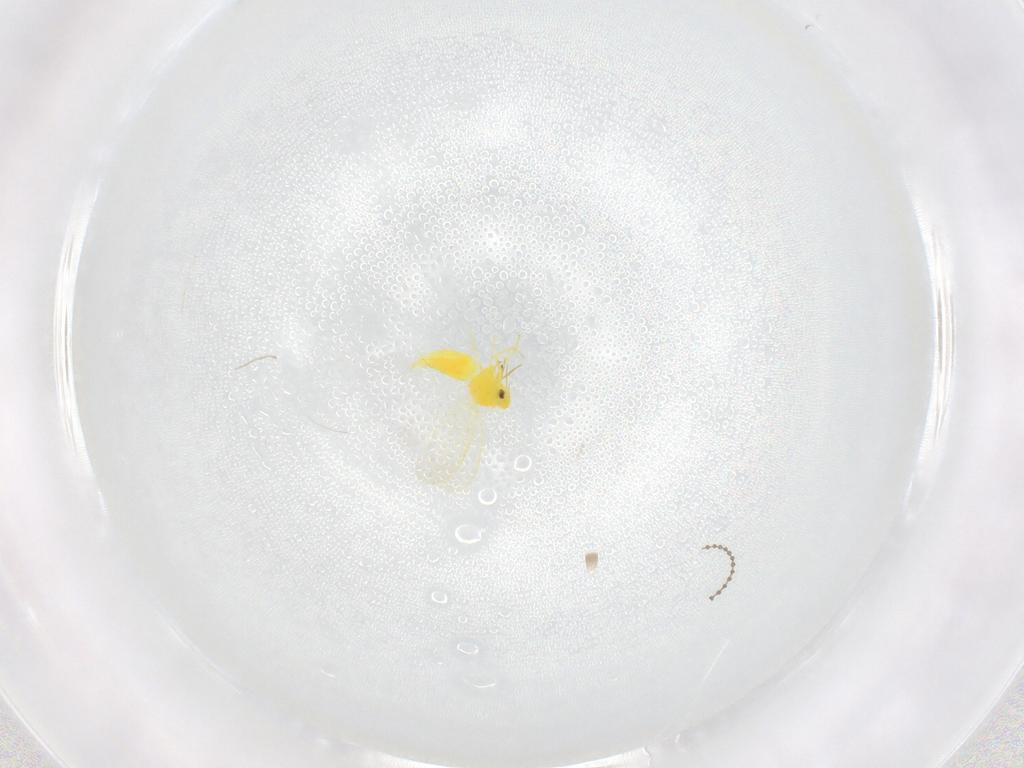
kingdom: Animalia
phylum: Arthropoda
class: Insecta
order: Hemiptera
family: Aleyrodidae
